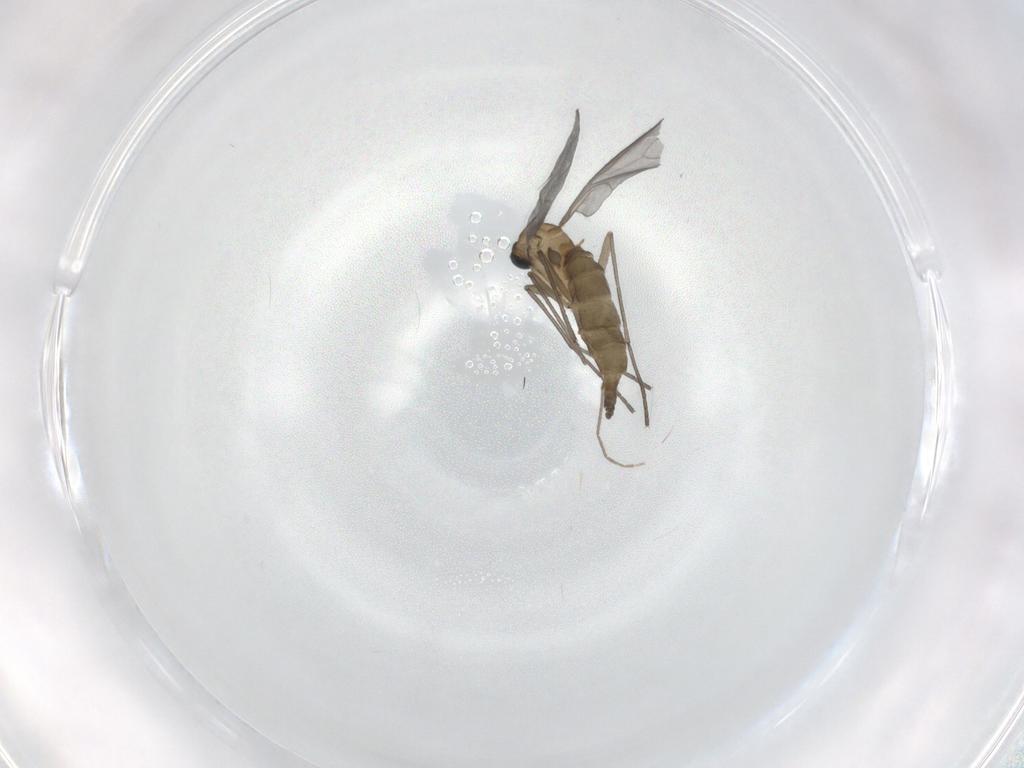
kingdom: Animalia
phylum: Arthropoda
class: Insecta
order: Diptera
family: Sciaridae
